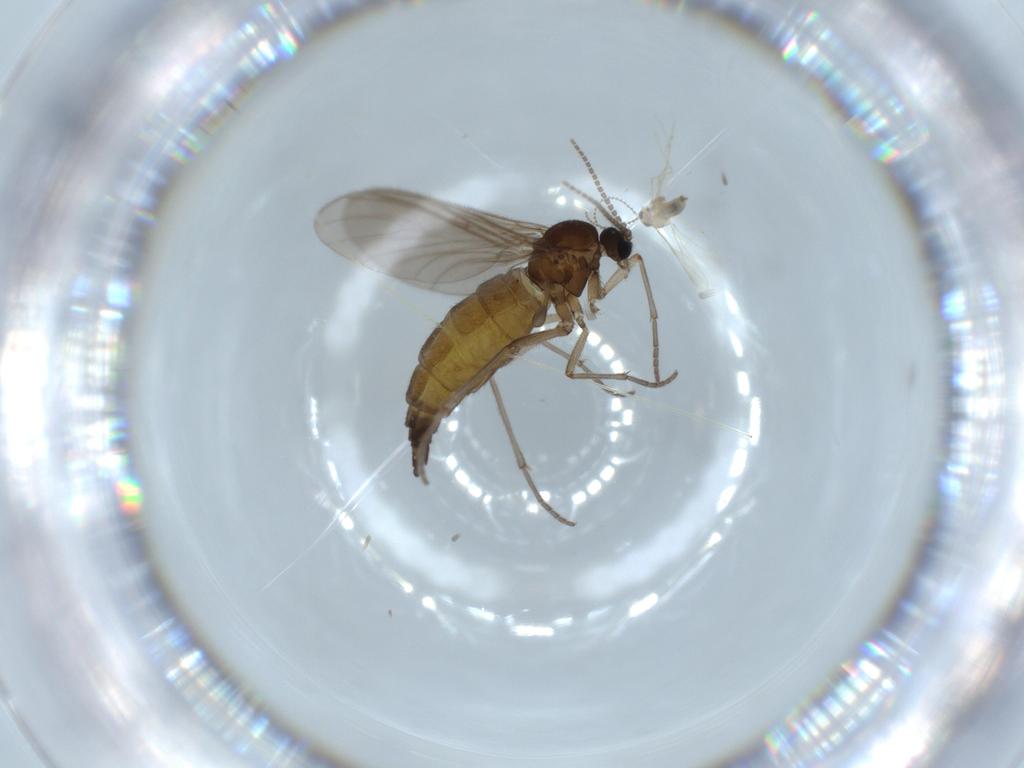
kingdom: Animalia
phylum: Arthropoda
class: Insecta
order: Diptera
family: Sciaridae
